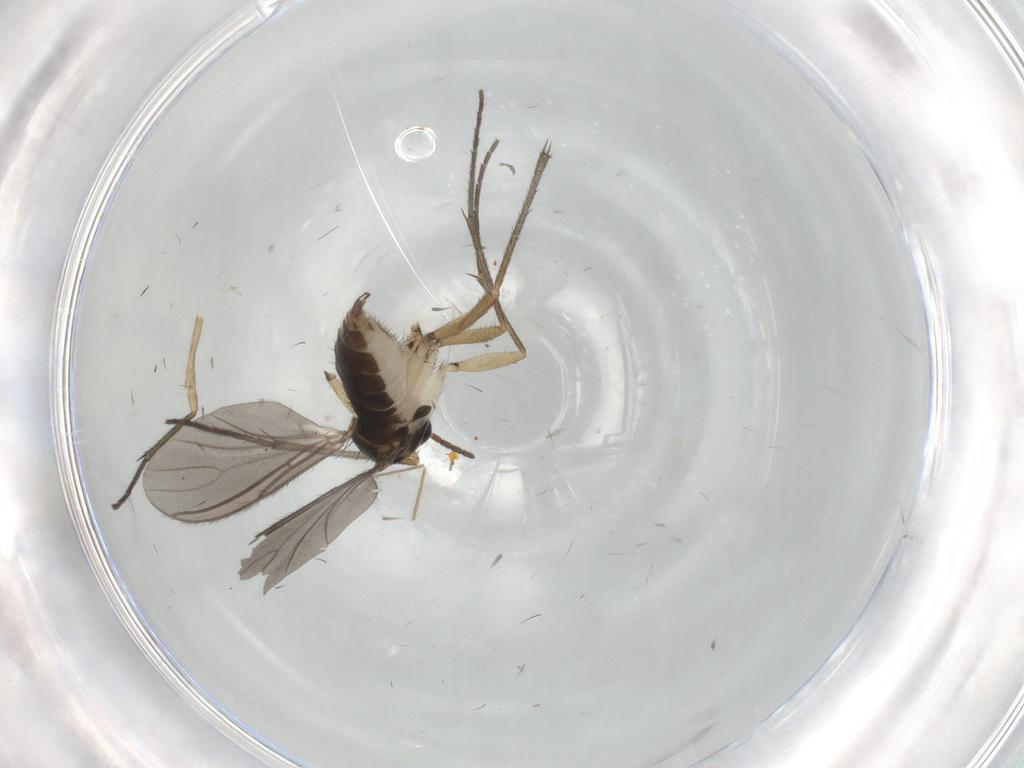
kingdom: Animalia
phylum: Arthropoda
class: Insecta
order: Diptera
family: Sciaridae
